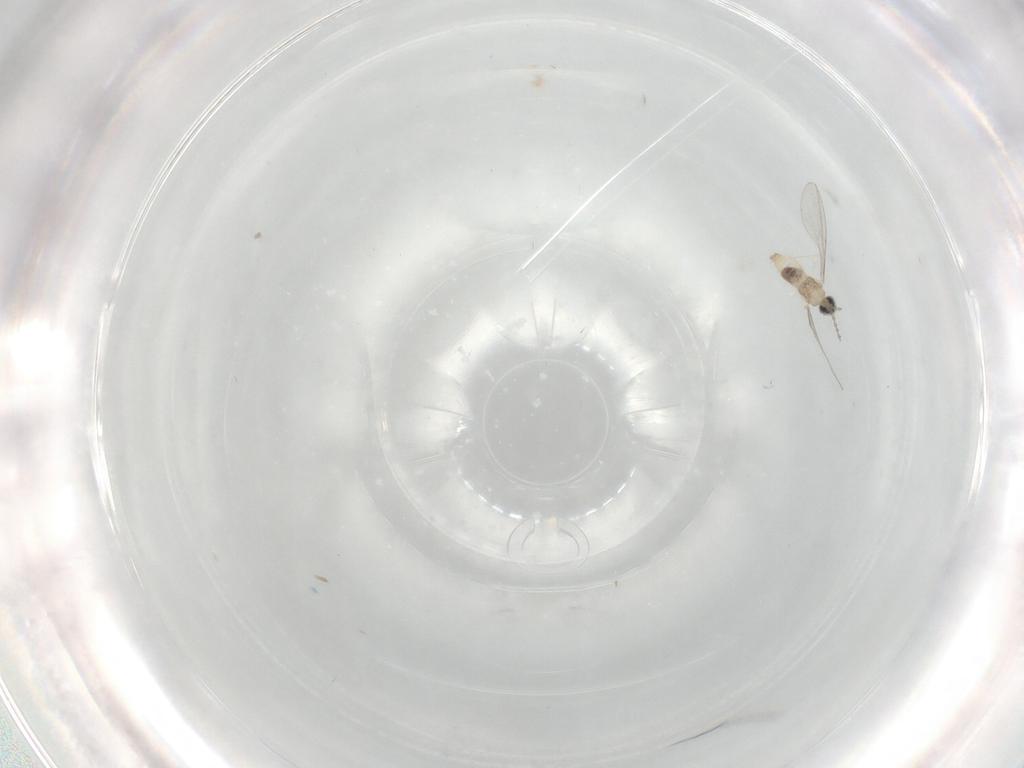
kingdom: Animalia
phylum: Arthropoda
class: Insecta
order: Diptera
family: Cecidomyiidae
